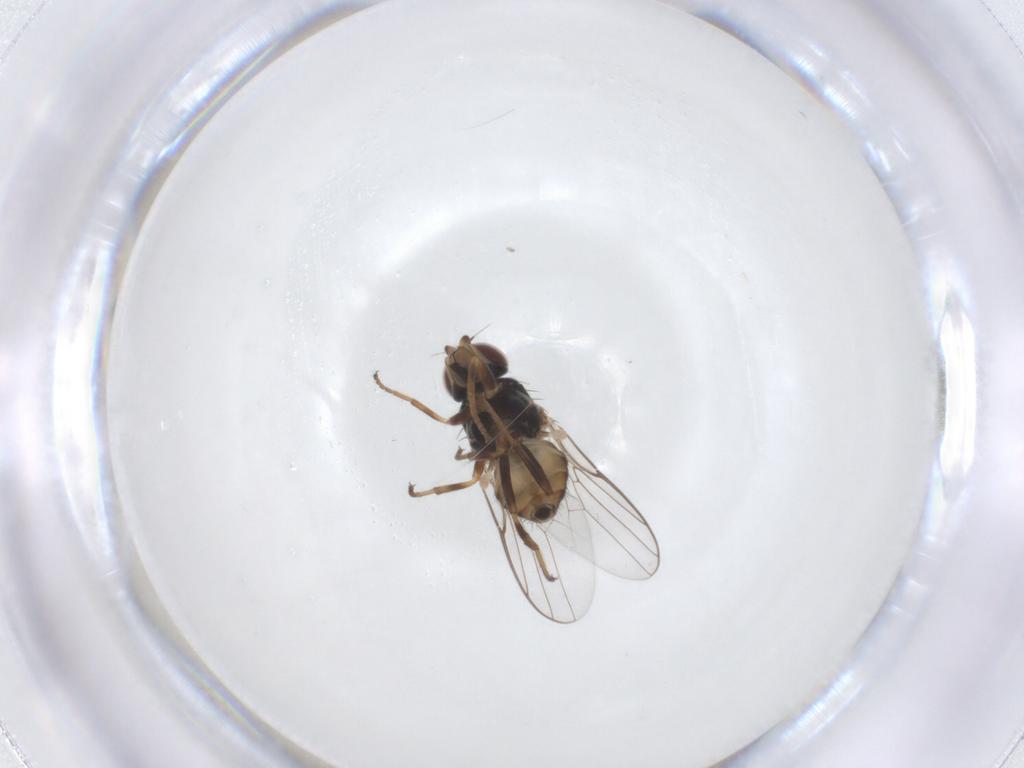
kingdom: Animalia
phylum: Arthropoda
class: Insecta
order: Diptera
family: Chloropidae
